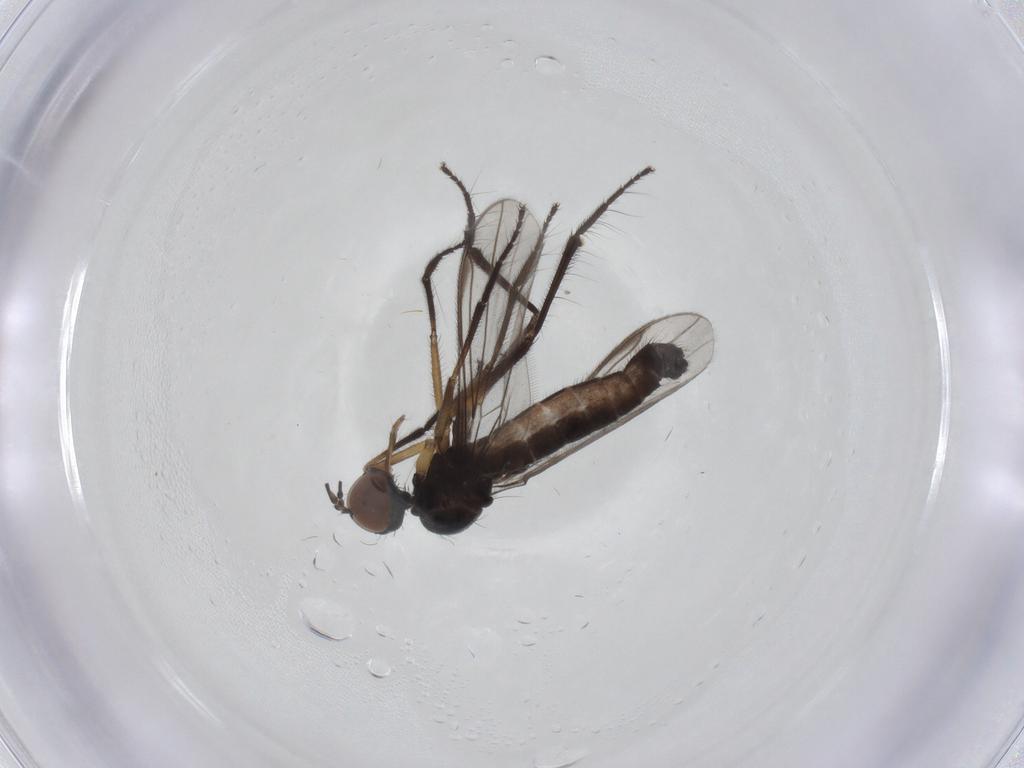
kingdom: Animalia
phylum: Arthropoda
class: Insecta
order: Diptera
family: Empididae
